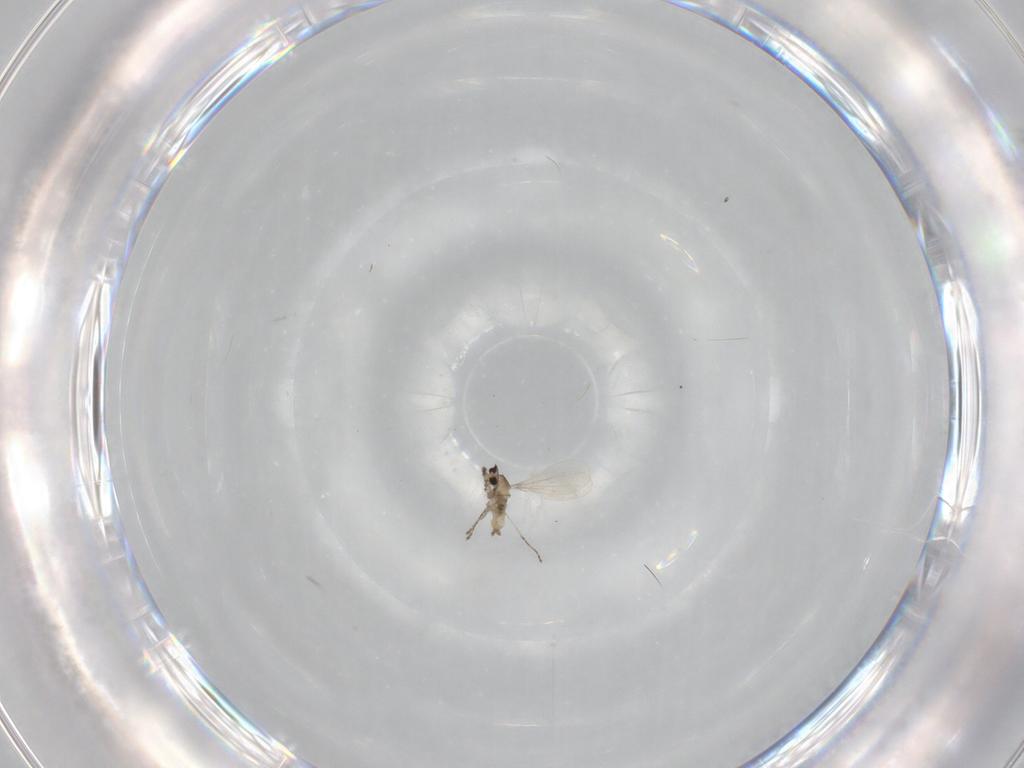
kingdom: Animalia
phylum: Arthropoda
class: Insecta
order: Diptera
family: Cecidomyiidae
